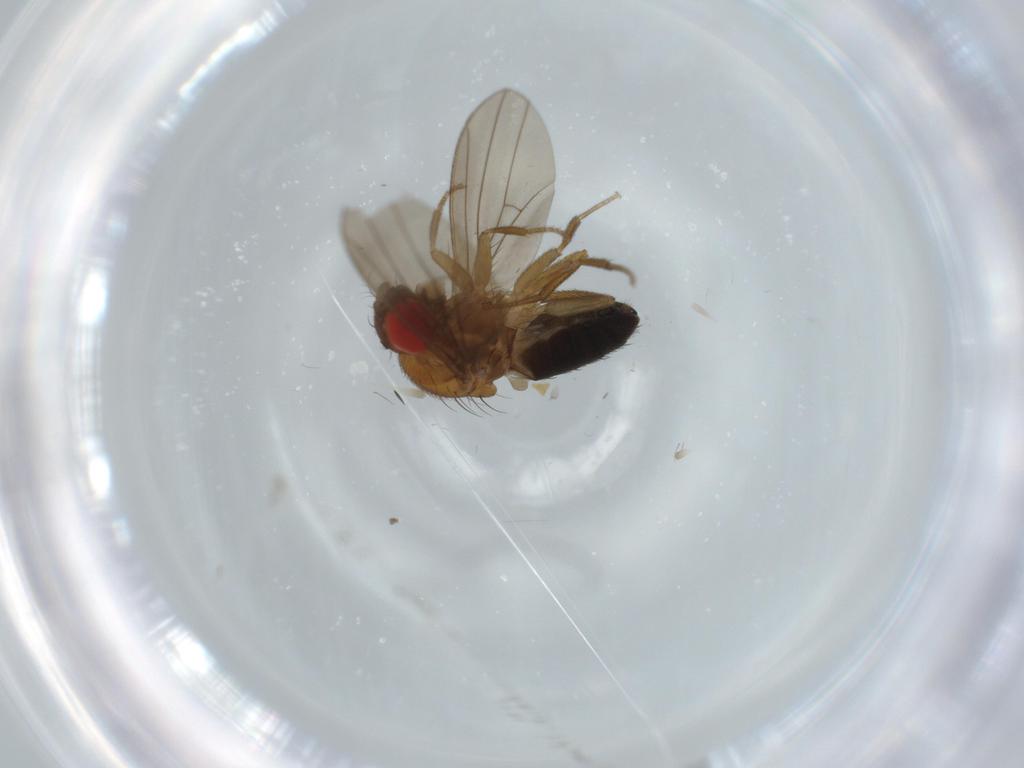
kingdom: Animalia
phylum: Arthropoda
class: Insecta
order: Diptera
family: Drosophilidae
